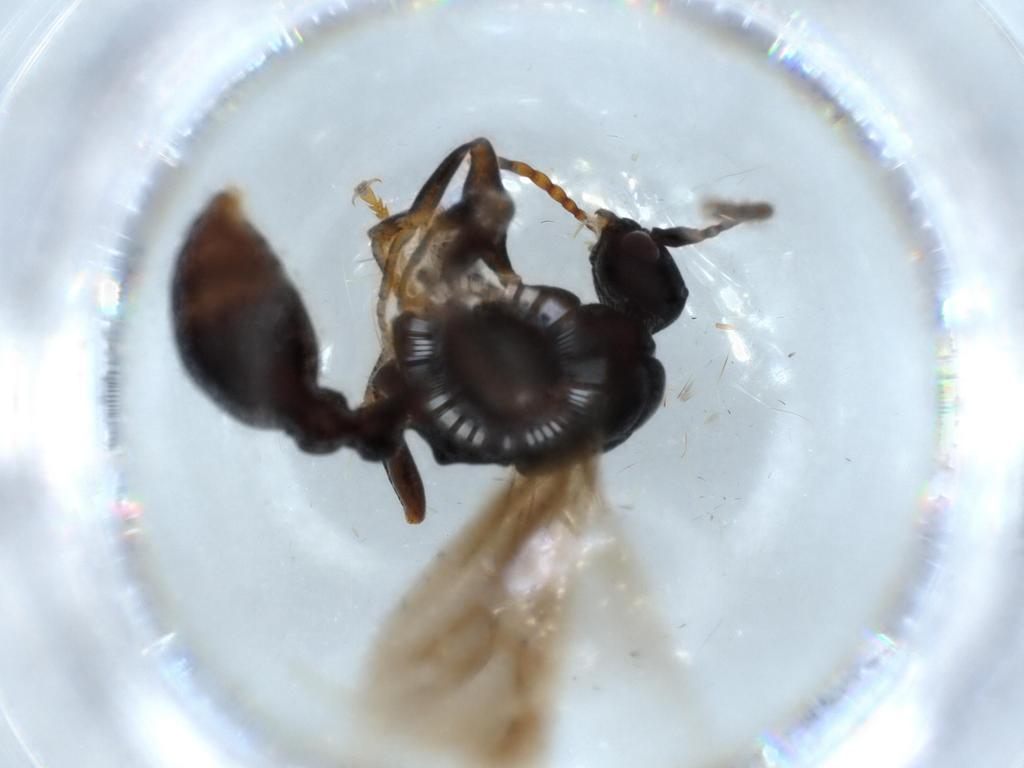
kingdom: Animalia
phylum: Arthropoda
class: Insecta
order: Hymenoptera
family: Formicidae
